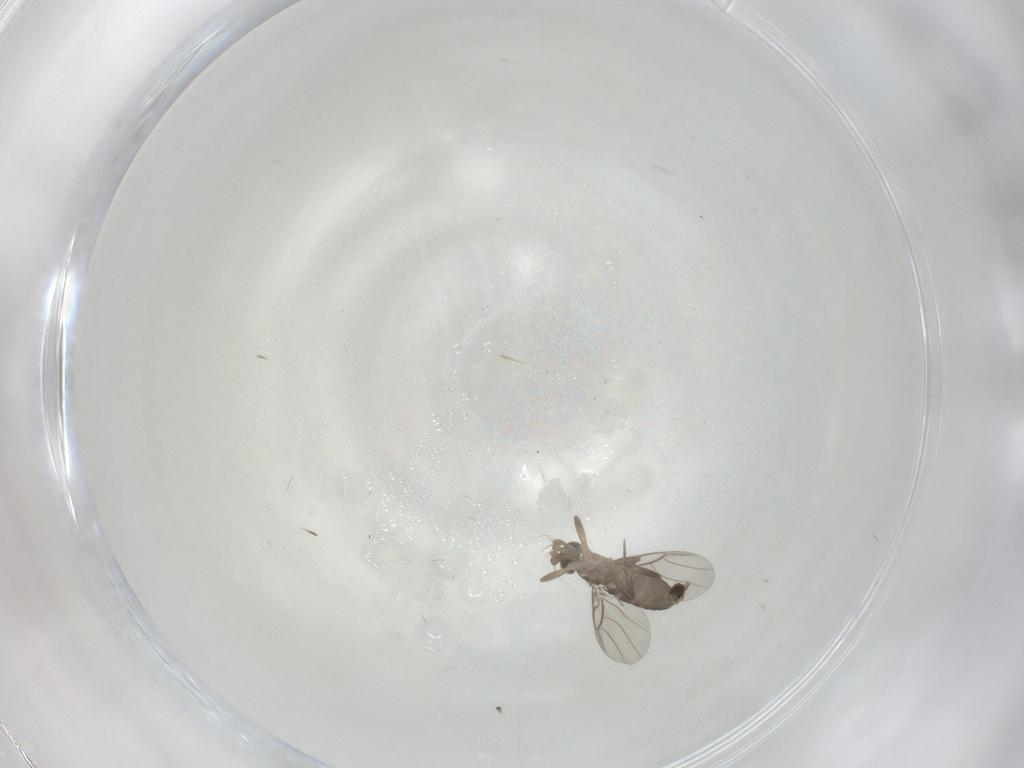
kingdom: Animalia
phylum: Arthropoda
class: Insecta
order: Diptera
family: Phoridae
